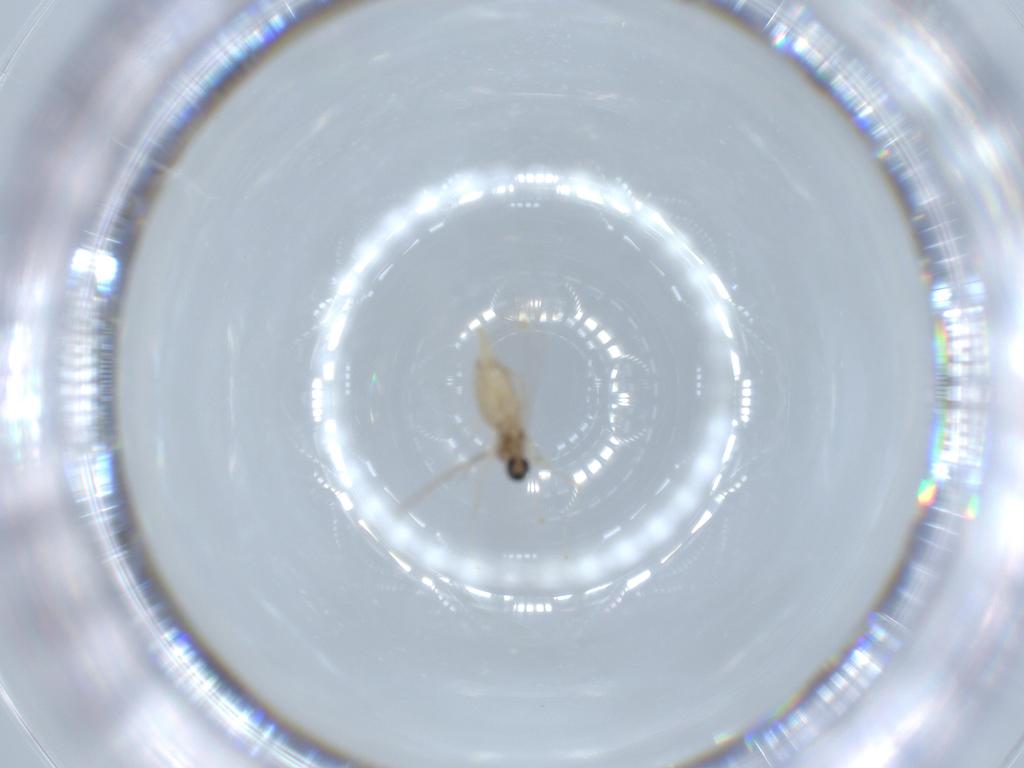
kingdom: Animalia
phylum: Arthropoda
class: Insecta
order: Diptera
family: Cecidomyiidae
